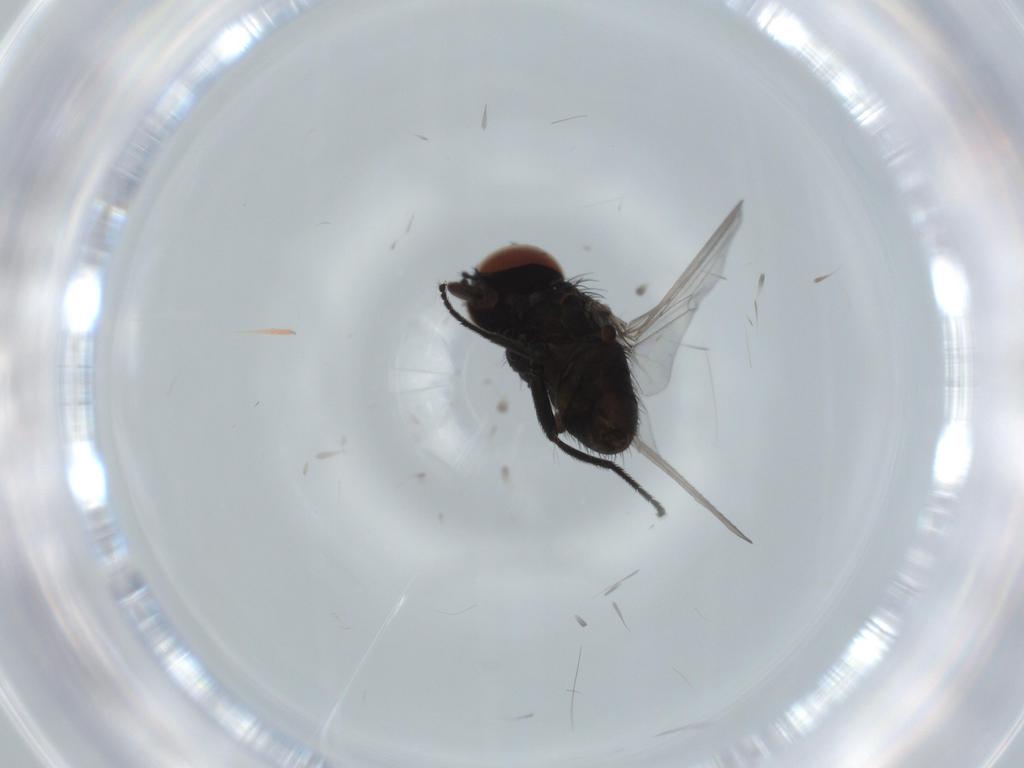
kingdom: Animalia
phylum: Arthropoda
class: Insecta
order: Diptera
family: Milichiidae
